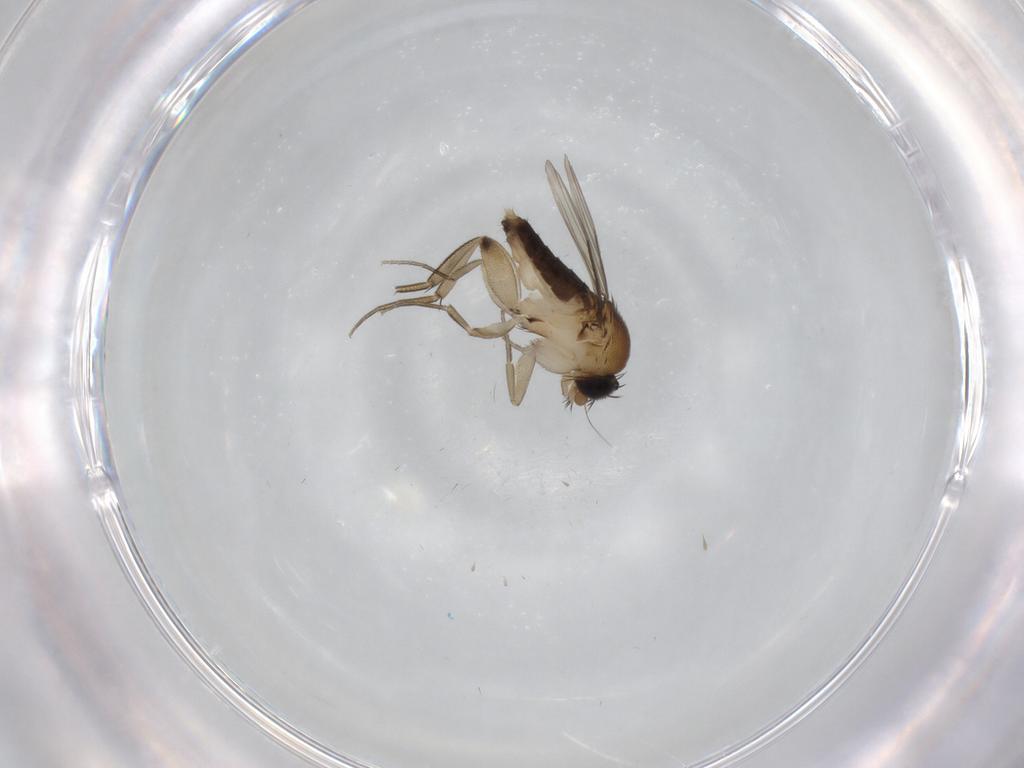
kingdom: Animalia
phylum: Arthropoda
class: Insecta
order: Diptera
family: Phoridae
